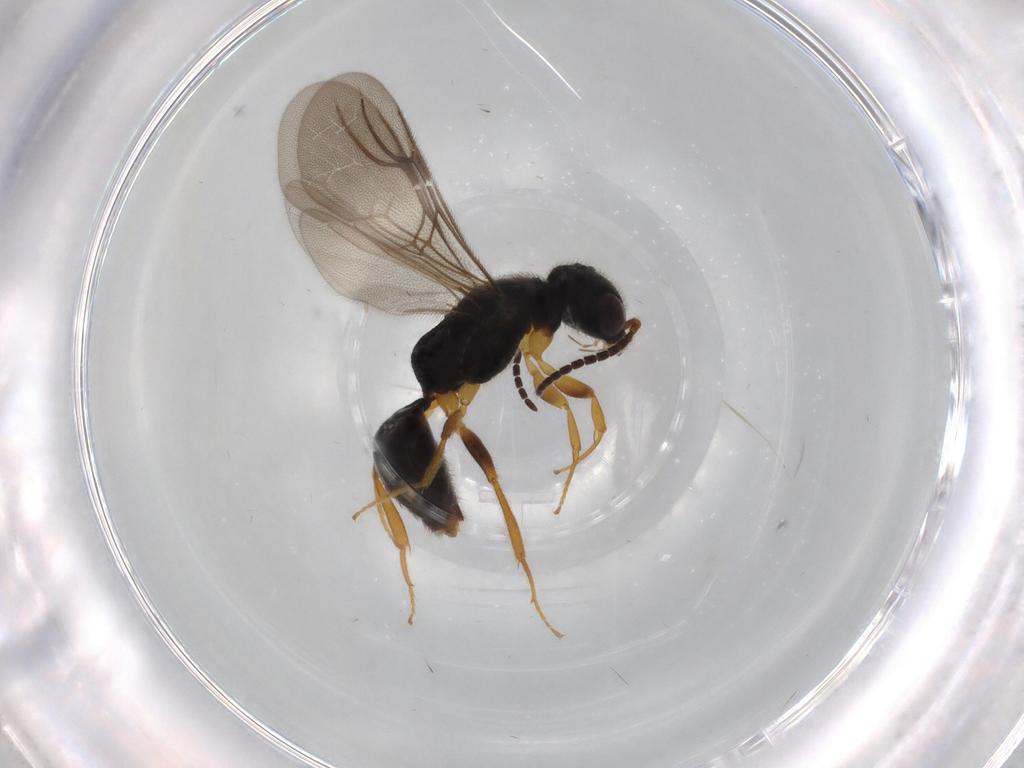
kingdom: Animalia
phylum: Arthropoda
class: Insecta
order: Hymenoptera
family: Bethylidae
